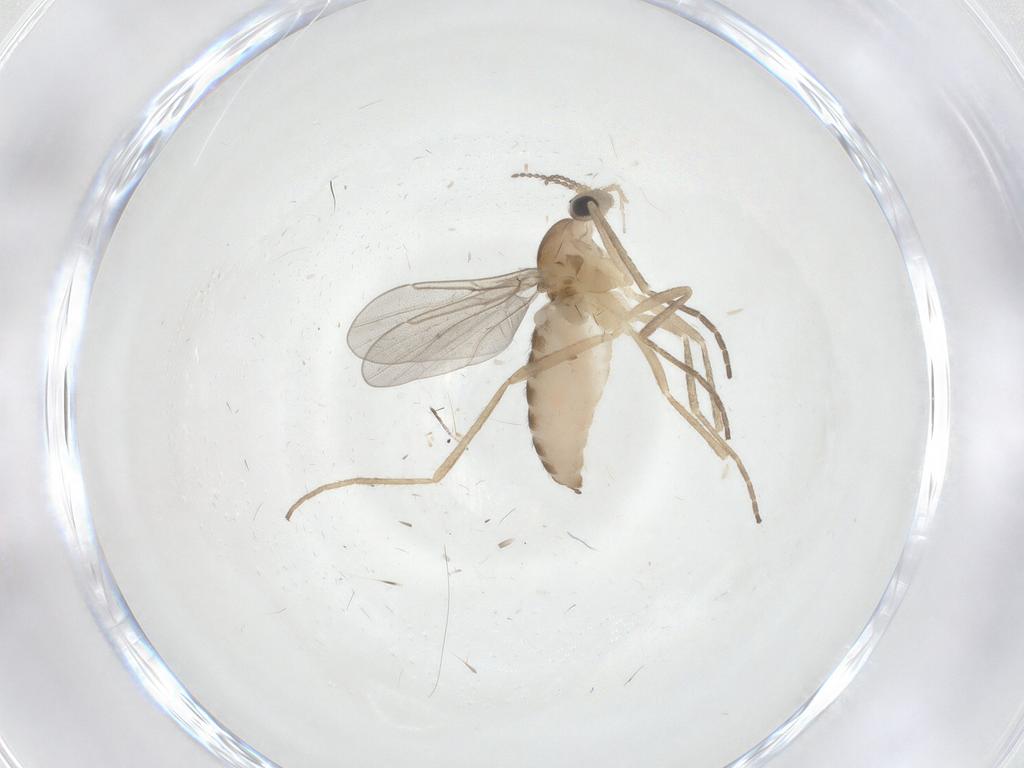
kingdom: Animalia
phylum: Arthropoda
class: Insecta
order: Diptera
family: Cecidomyiidae
